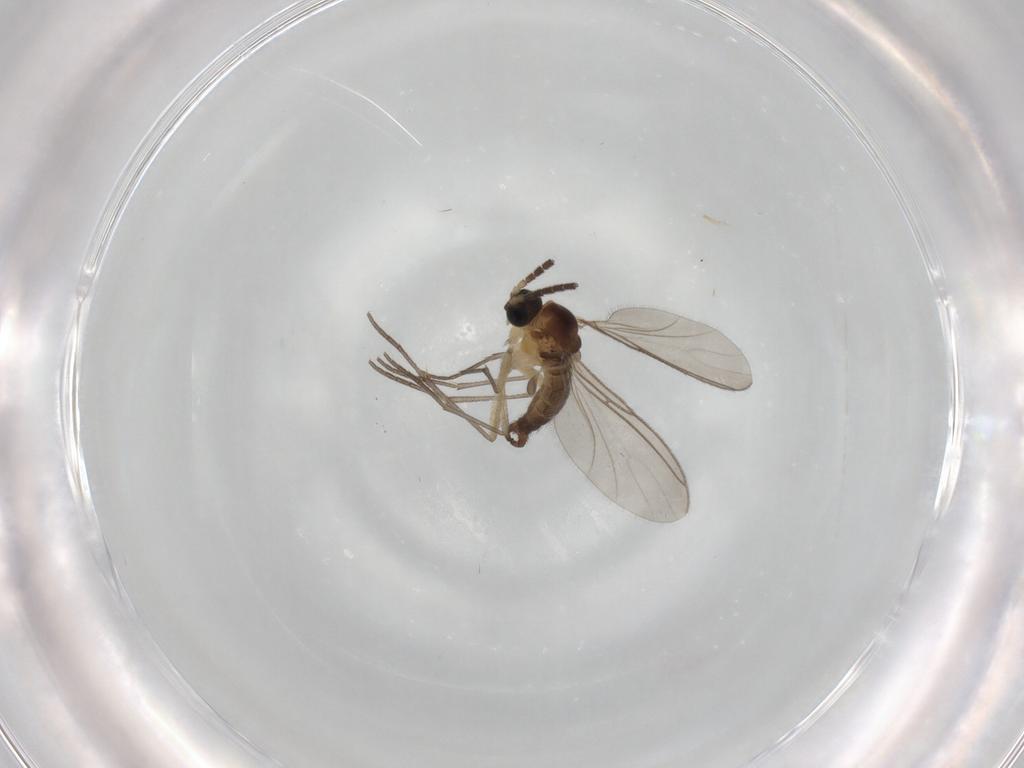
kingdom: Animalia
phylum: Arthropoda
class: Insecta
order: Diptera
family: Sciaridae
